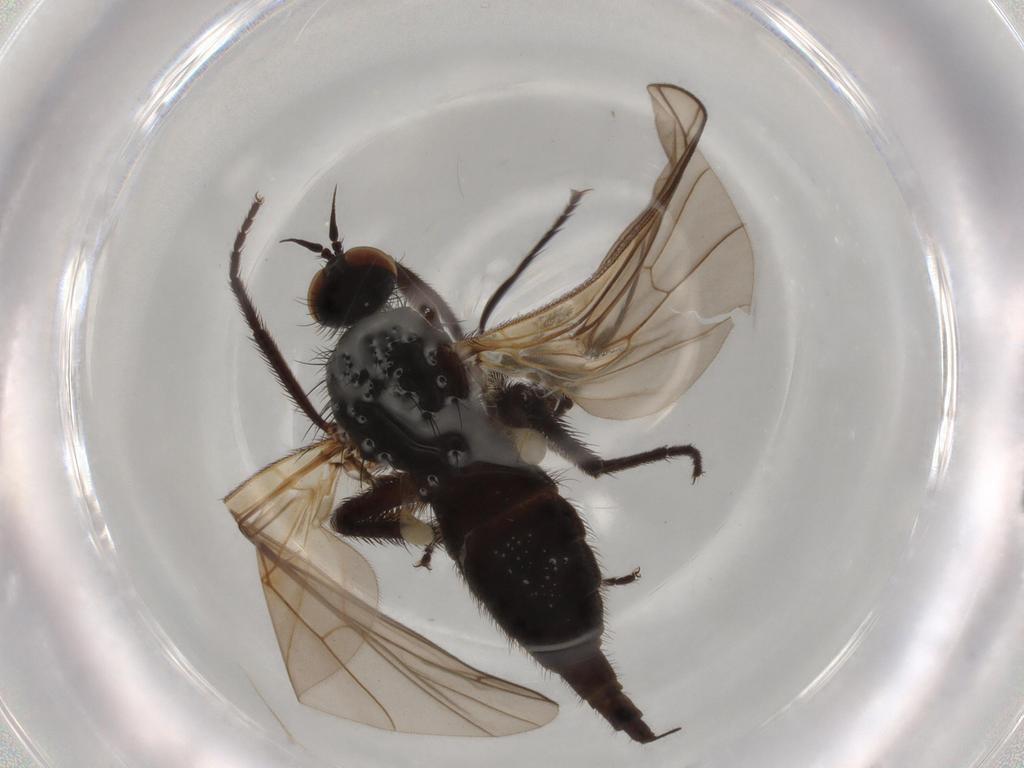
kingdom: Animalia
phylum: Arthropoda
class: Insecta
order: Diptera
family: Empididae
